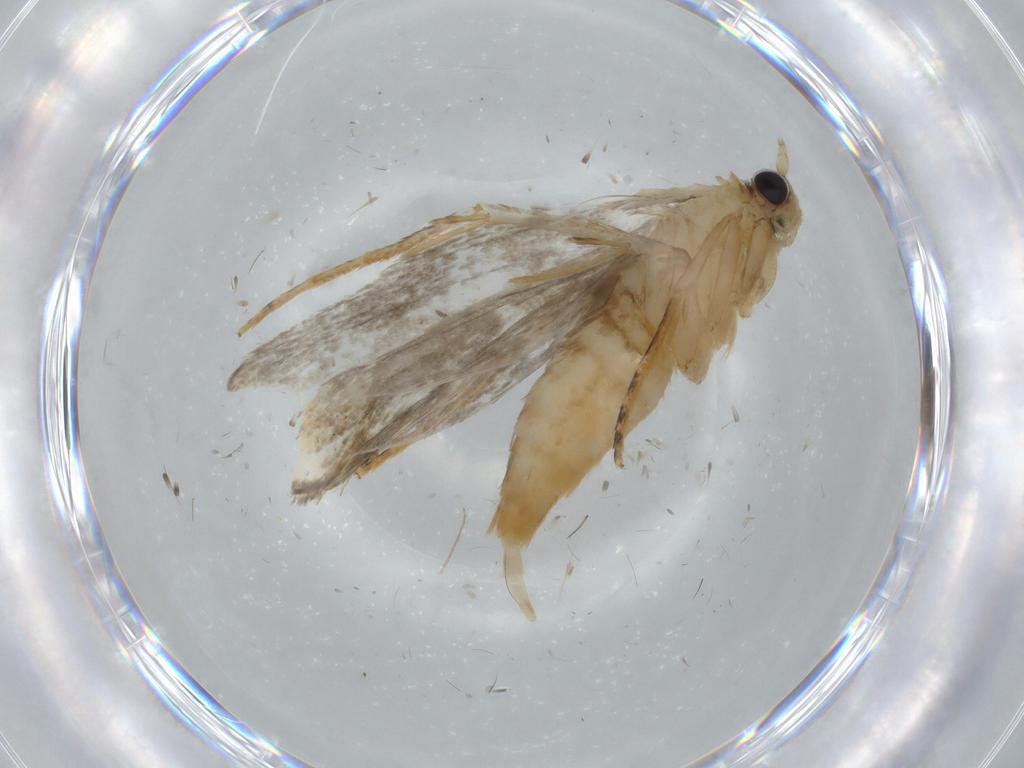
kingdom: Animalia
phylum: Arthropoda
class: Insecta
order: Lepidoptera
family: Tineidae
